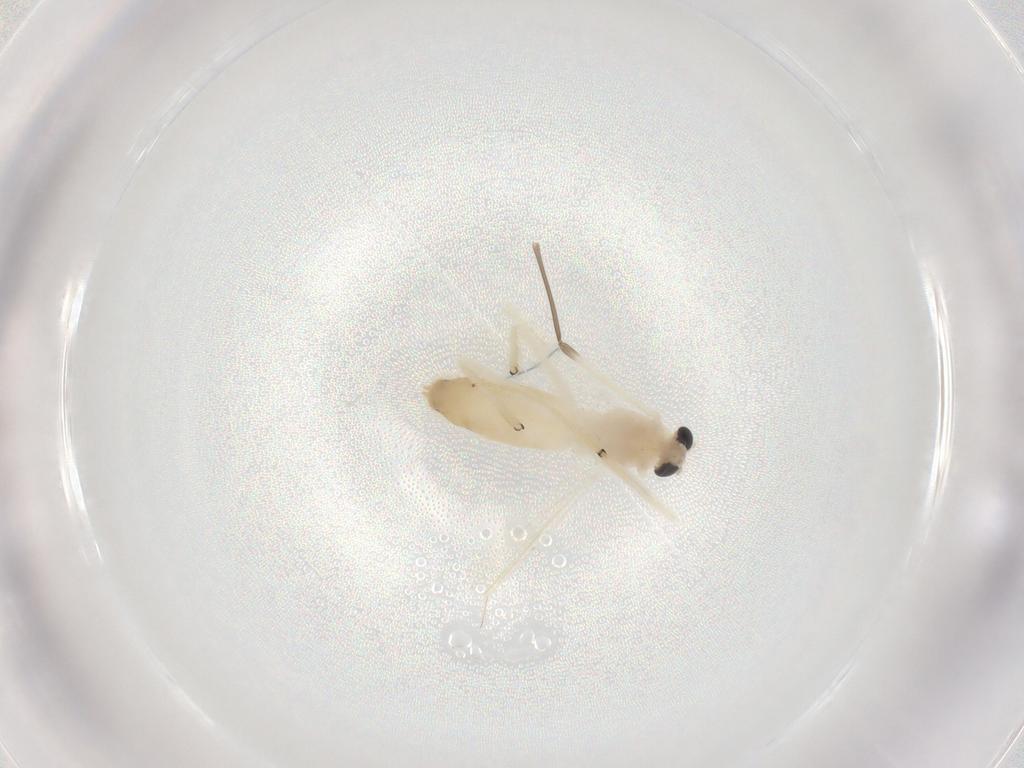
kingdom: Animalia
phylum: Arthropoda
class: Insecta
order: Diptera
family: Chironomidae
